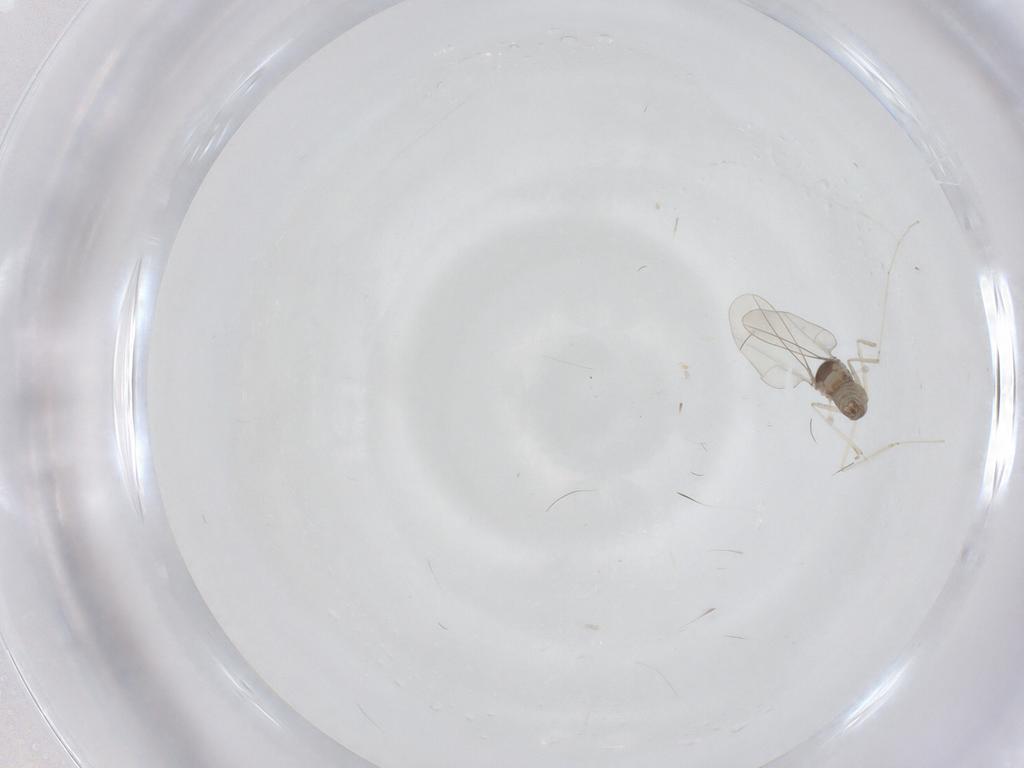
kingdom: Animalia
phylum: Arthropoda
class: Insecta
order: Diptera
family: Cecidomyiidae
